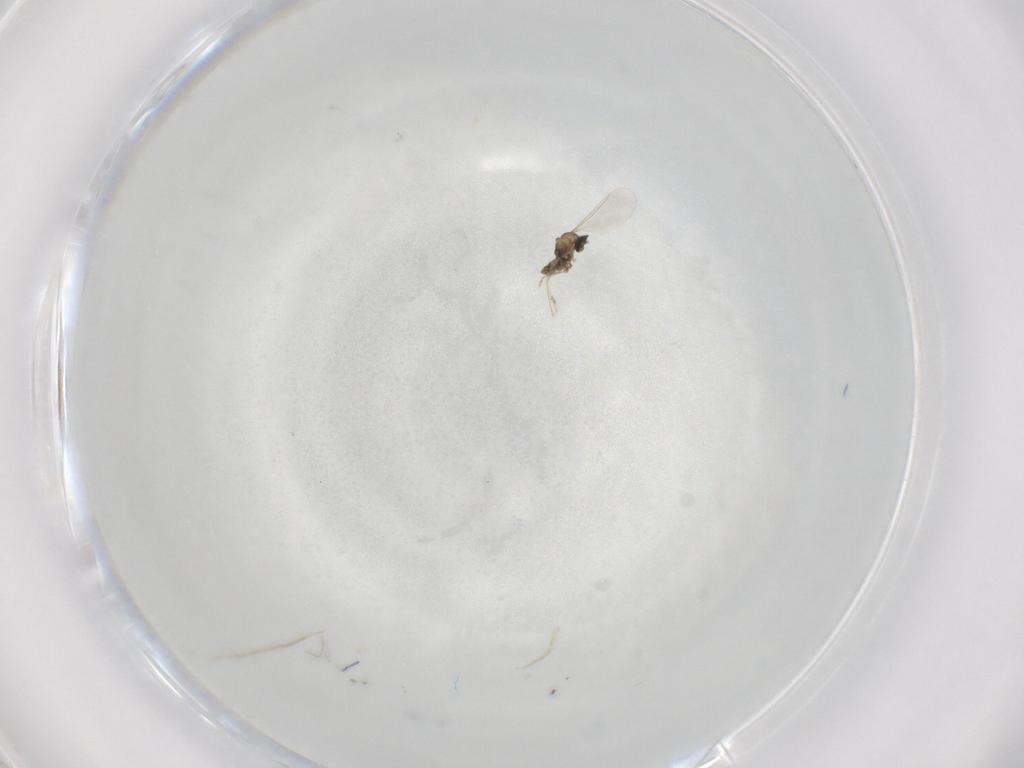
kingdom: Animalia
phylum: Arthropoda
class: Insecta
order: Diptera
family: Cecidomyiidae
